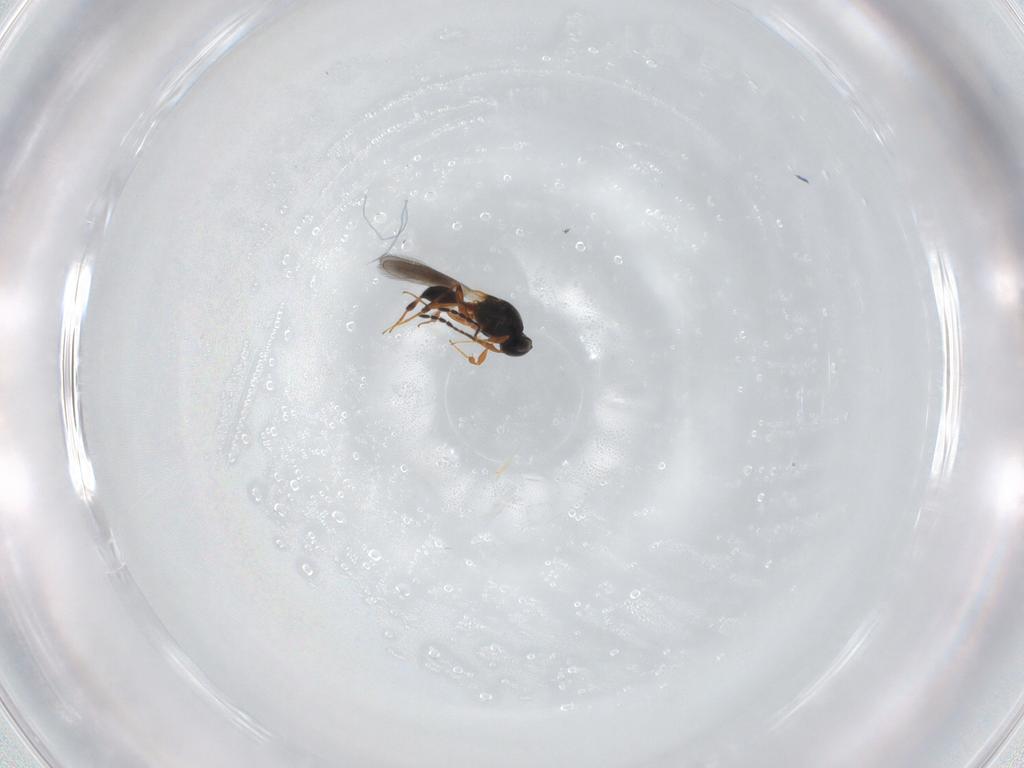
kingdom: Animalia
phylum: Arthropoda
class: Insecta
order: Hymenoptera
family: Platygastridae
